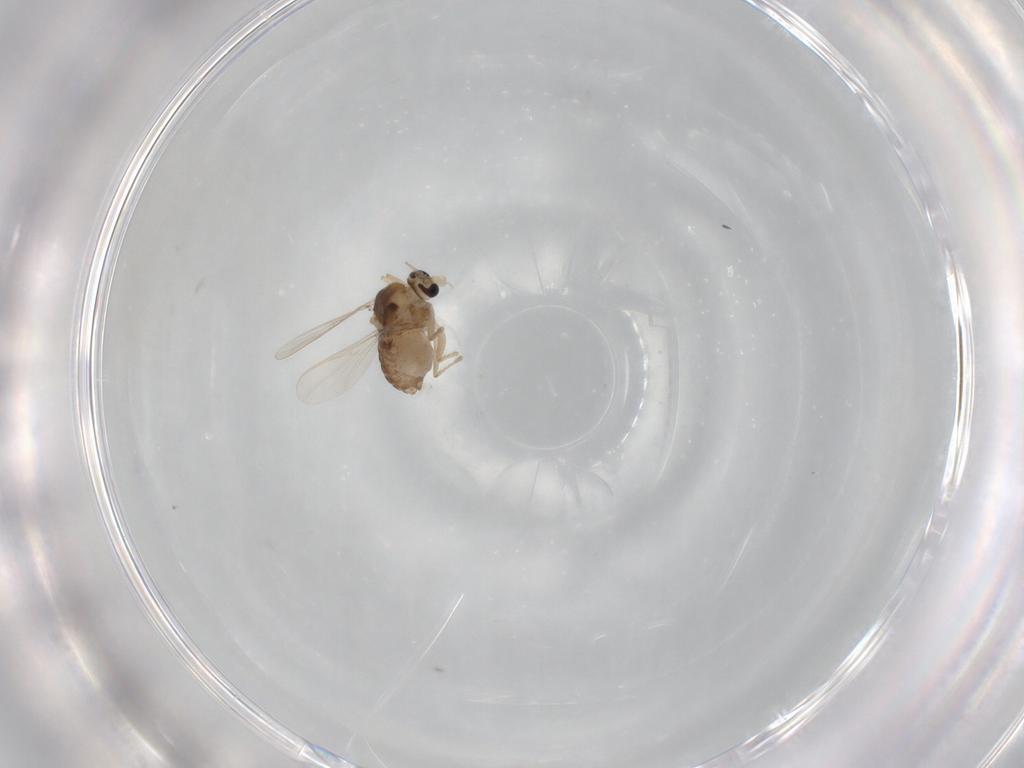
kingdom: Animalia
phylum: Arthropoda
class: Insecta
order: Diptera
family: Chironomidae
